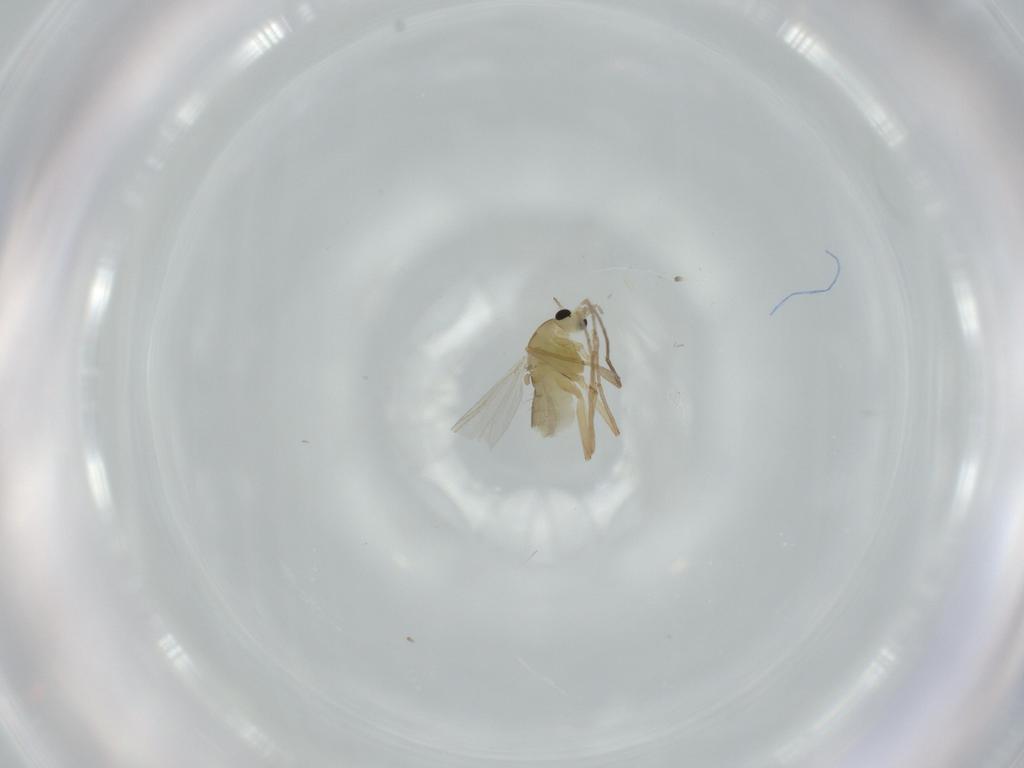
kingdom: Animalia
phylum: Arthropoda
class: Insecta
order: Diptera
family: Chironomidae
